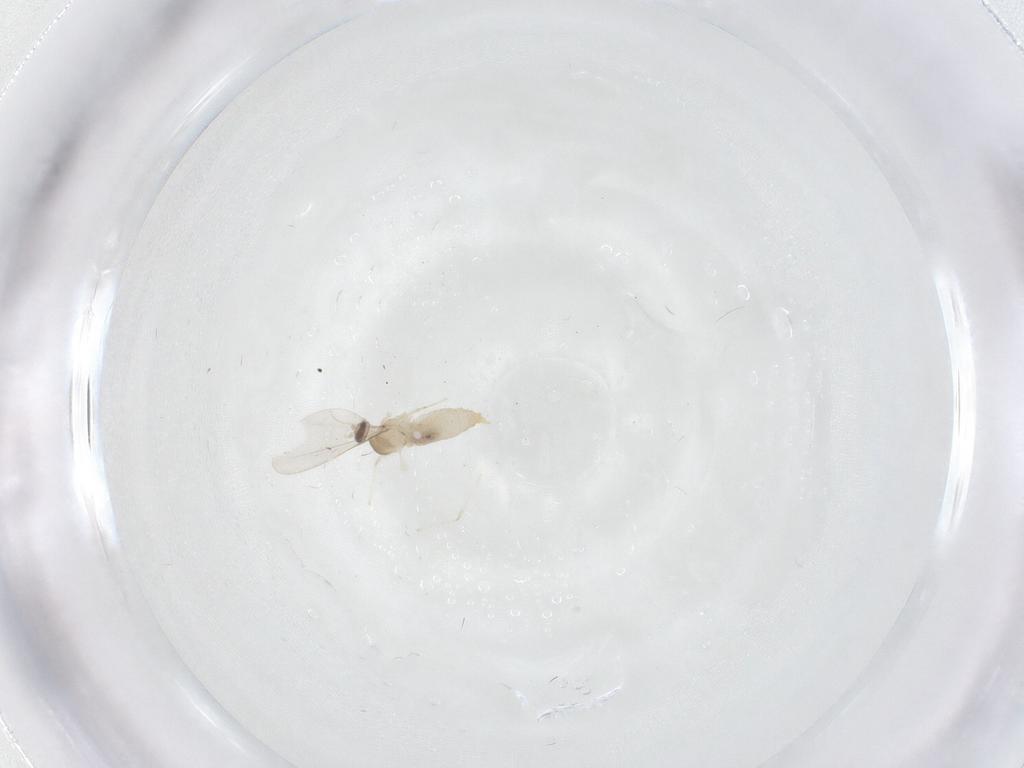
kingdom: Animalia
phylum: Arthropoda
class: Insecta
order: Diptera
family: Cecidomyiidae
